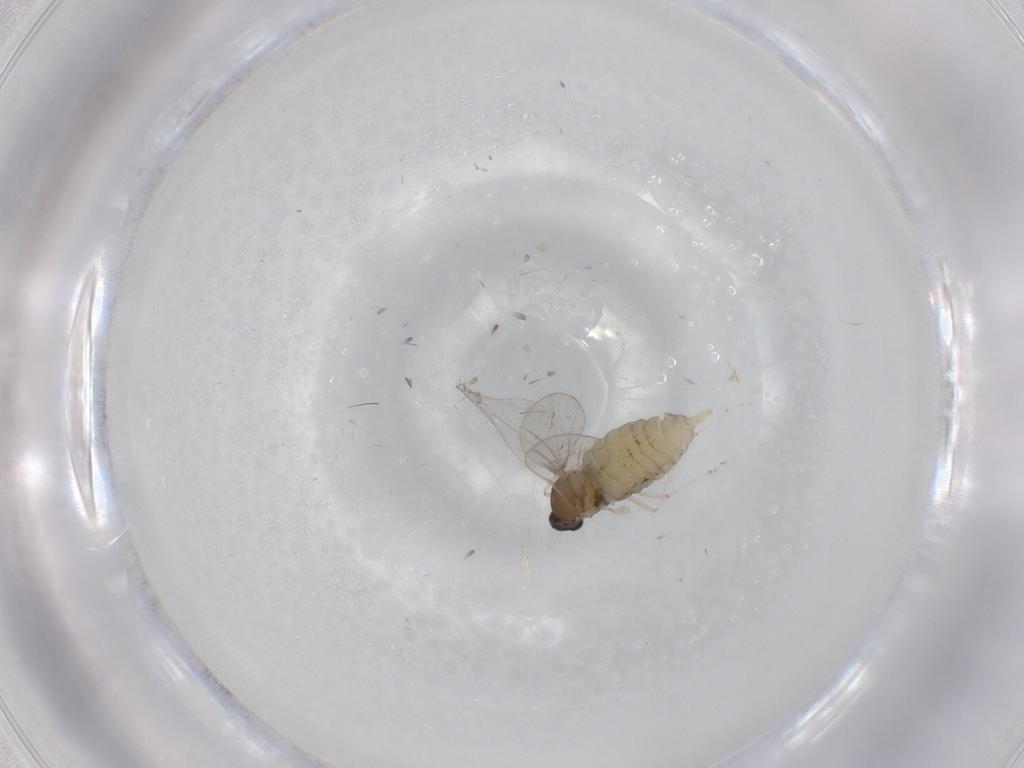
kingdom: Animalia
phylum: Arthropoda
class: Insecta
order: Diptera
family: Cecidomyiidae
